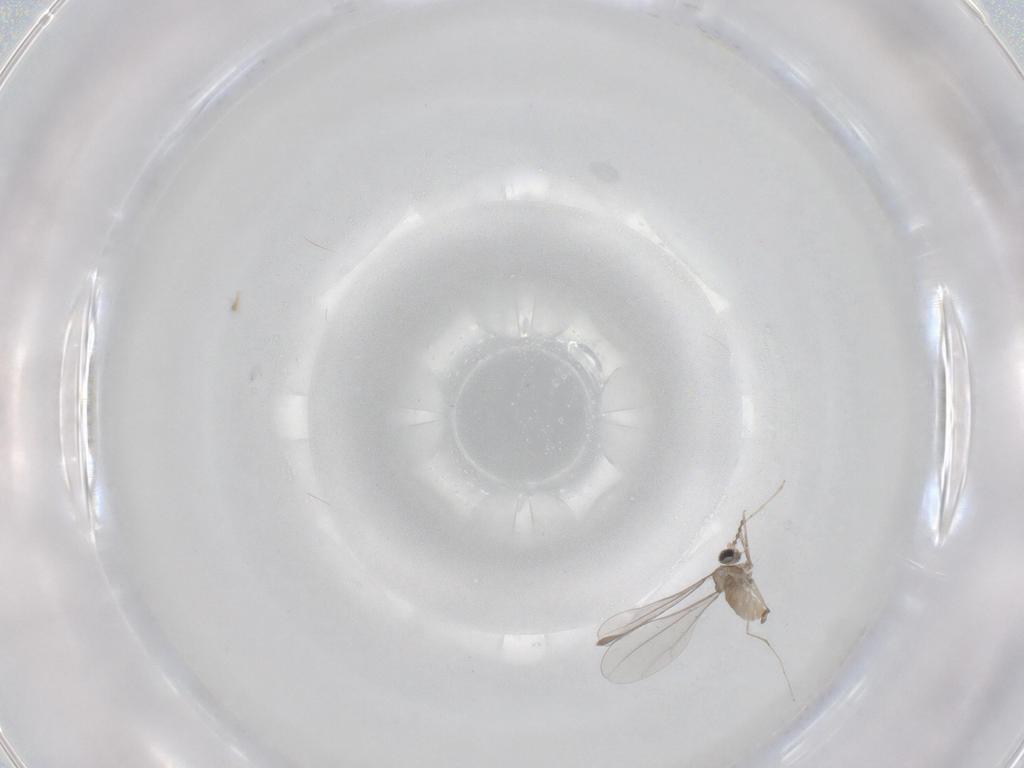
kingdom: Animalia
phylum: Arthropoda
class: Insecta
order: Diptera
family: Cecidomyiidae
